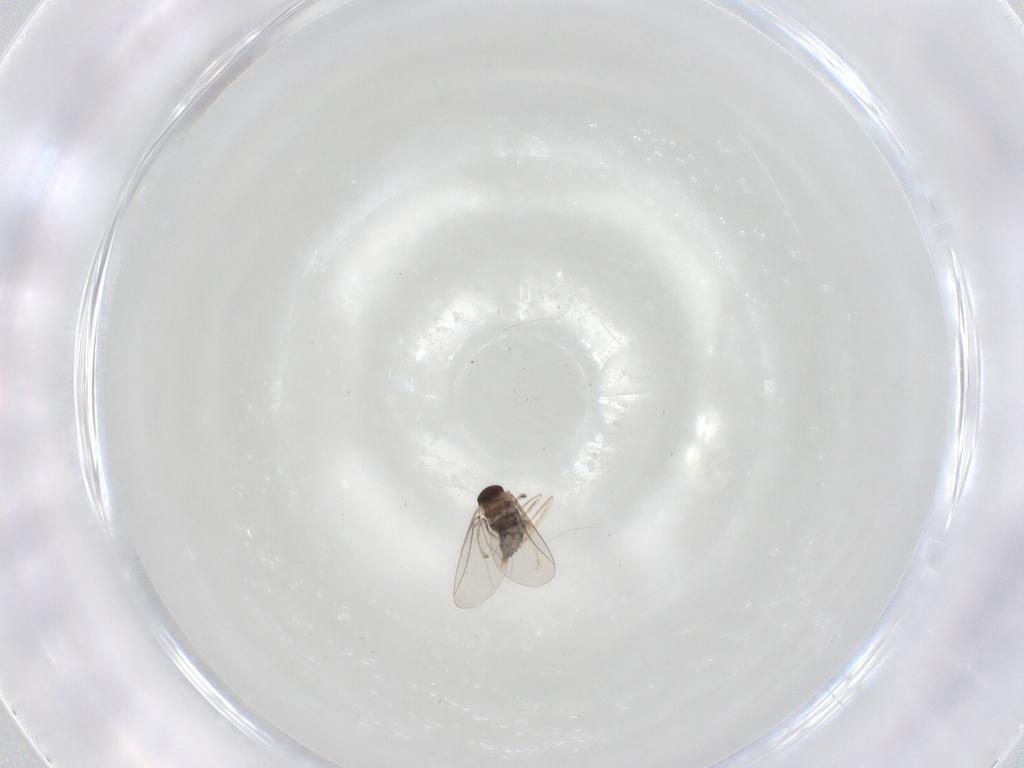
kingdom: Animalia
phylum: Arthropoda
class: Insecta
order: Diptera
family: Cecidomyiidae
